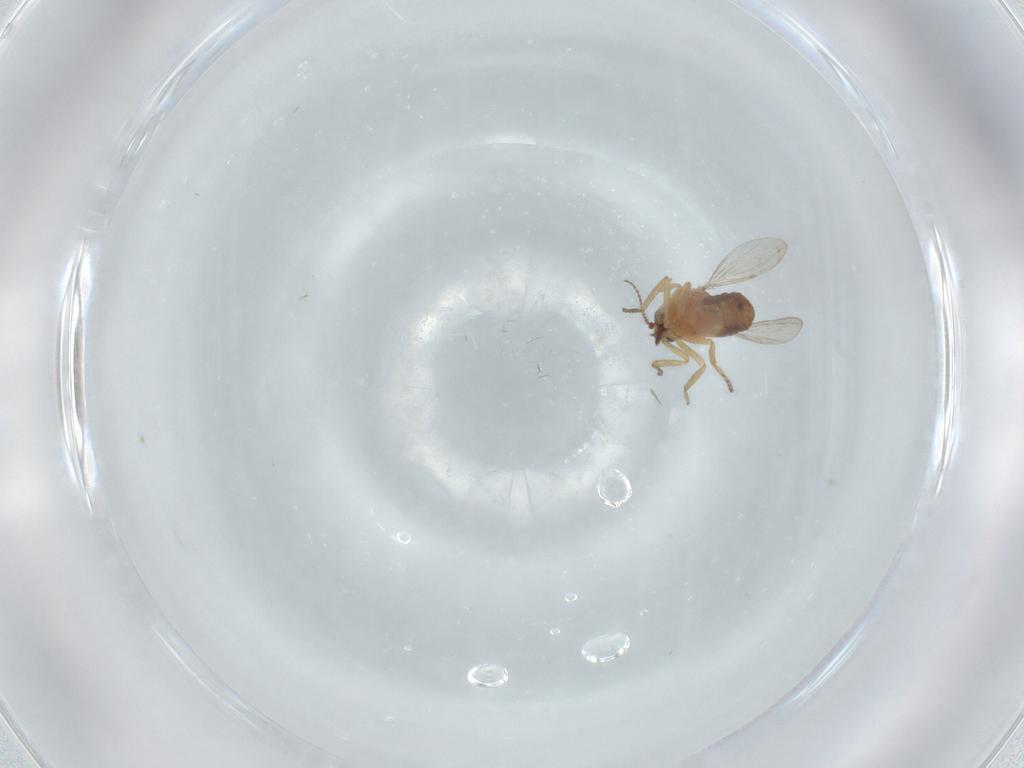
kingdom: Animalia
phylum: Arthropoda
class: Insecta
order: Diptera
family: Ceratopogonidae
